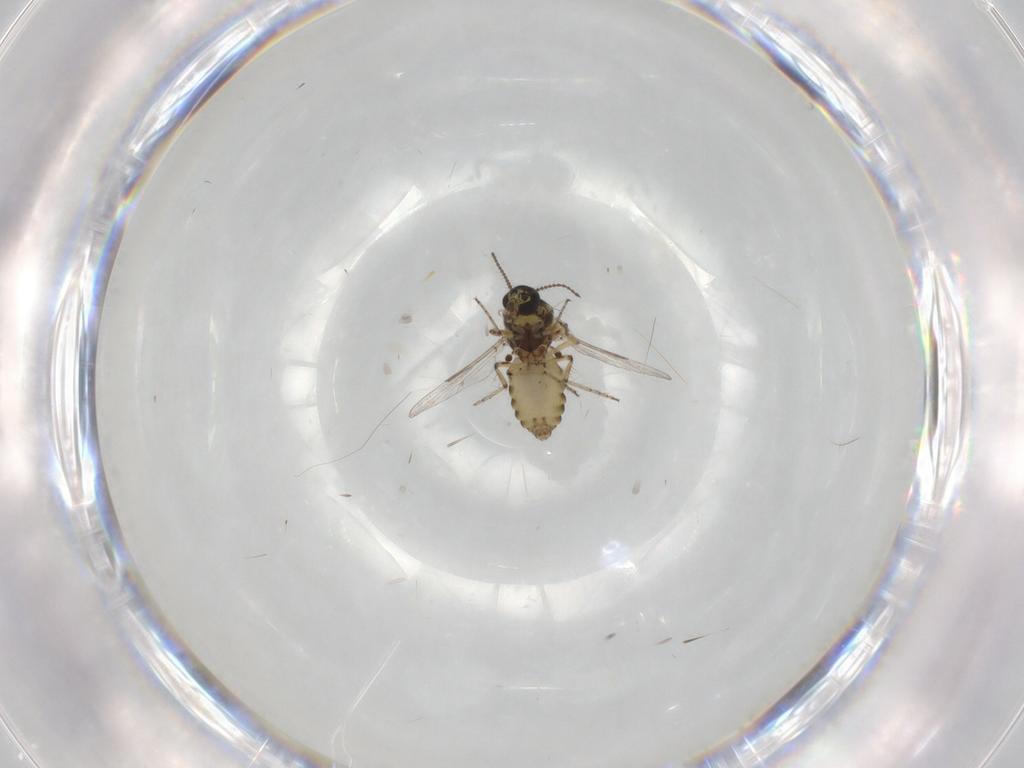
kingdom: Animalia
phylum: Arthropoda
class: Insecta
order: Diptera
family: Ceratopogonidae
